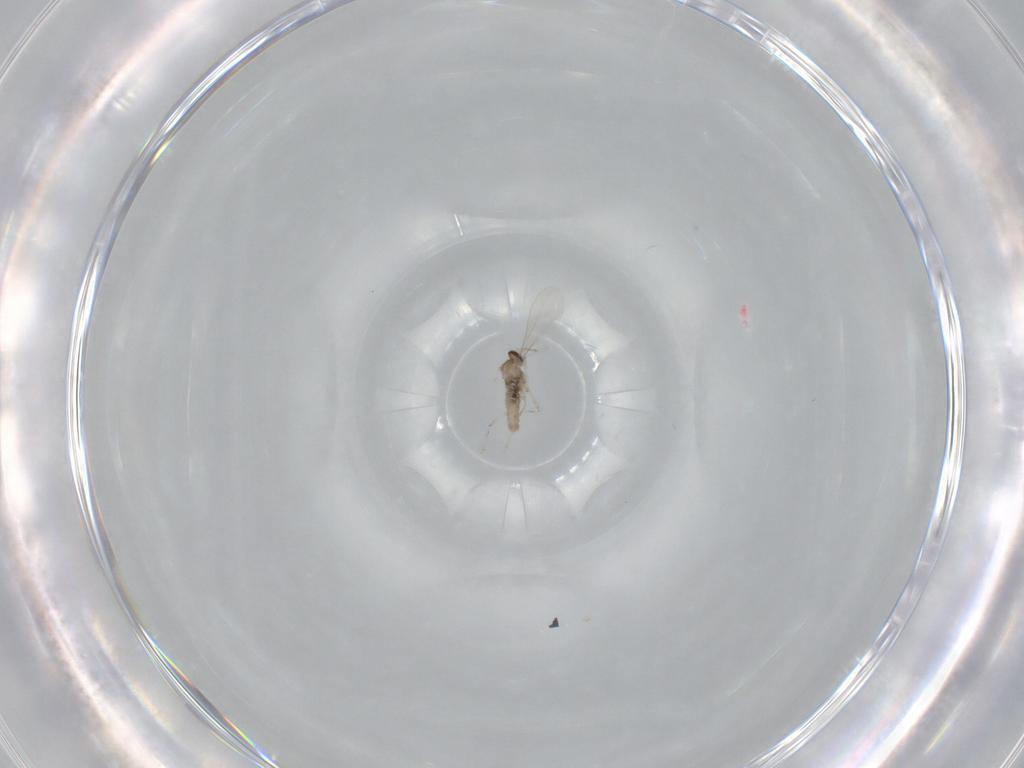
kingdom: Animalia
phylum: Arthropoda
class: Insecta
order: Diptera
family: Cecidomyiidae
